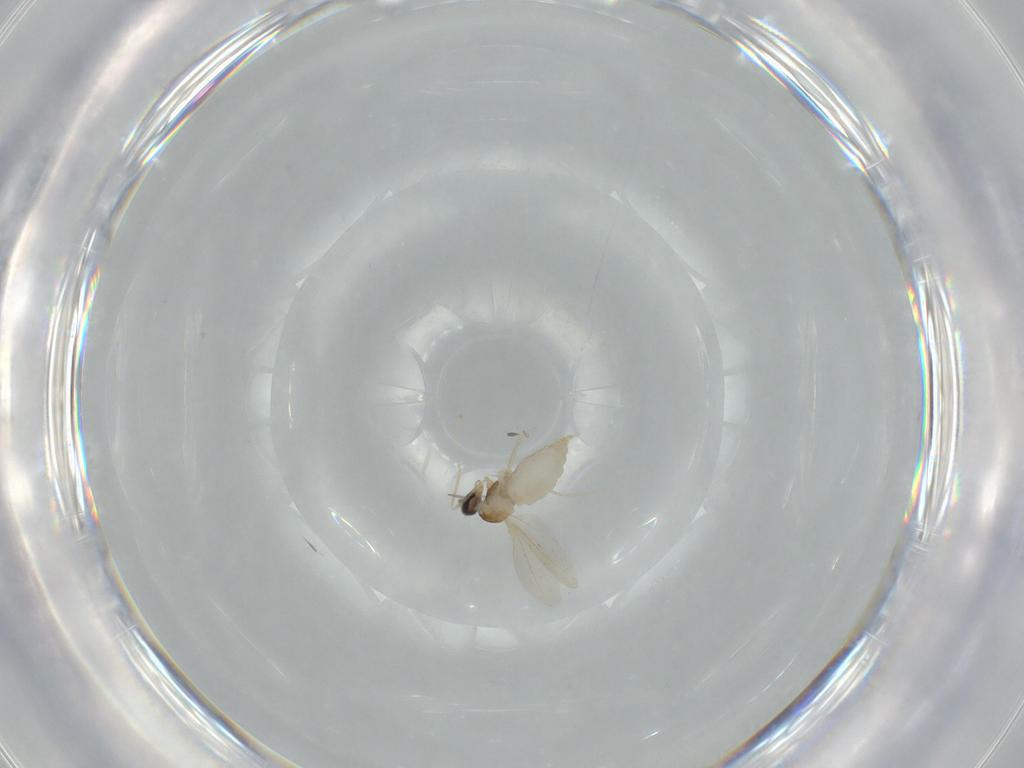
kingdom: Animalia
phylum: Arthropoda
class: Insecta
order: Diptera
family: Cecidomyiidae
